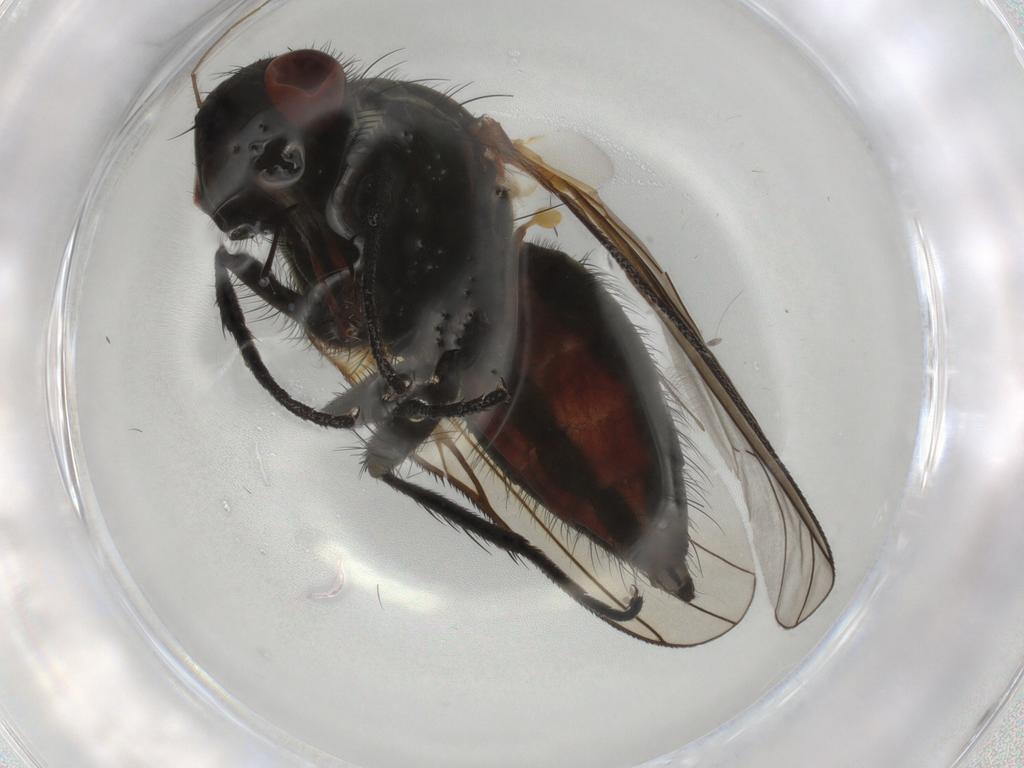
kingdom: Animalia
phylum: Arthropoda
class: Insecta
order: Diptera
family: Anthomyiidae
